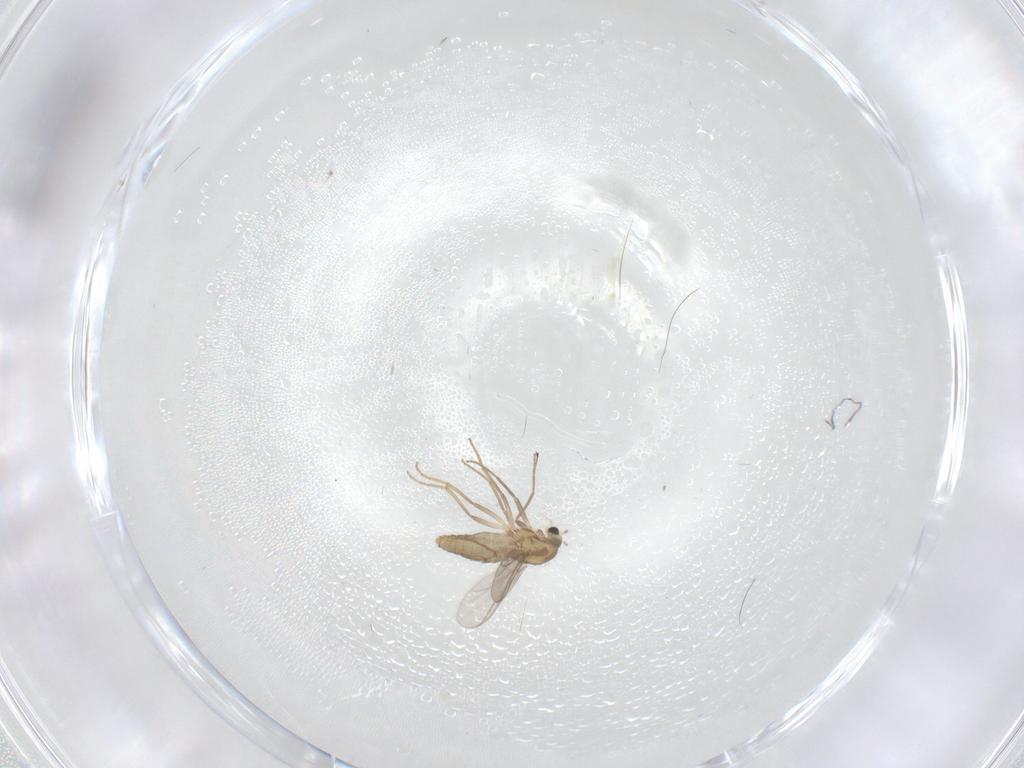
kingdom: Animalia
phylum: Arthropoda
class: Insecta
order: Diptera
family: Chironomidae
